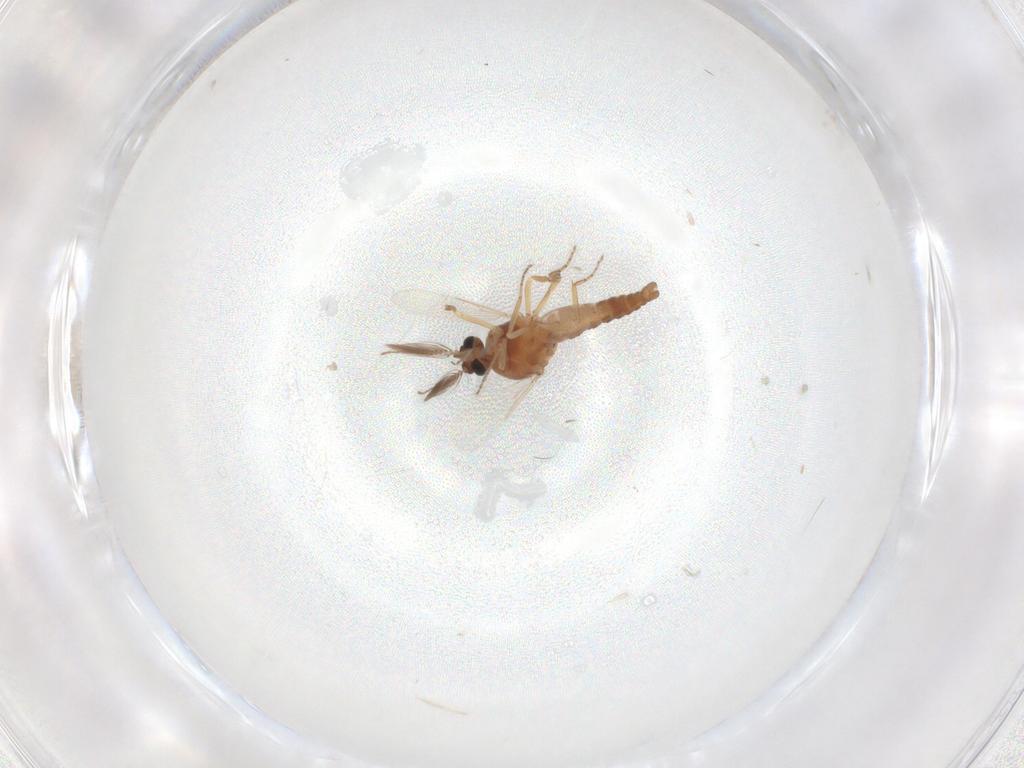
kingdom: Animalia
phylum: Arthropoda
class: Insecta
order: Diptera
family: Ceratopogonidae
